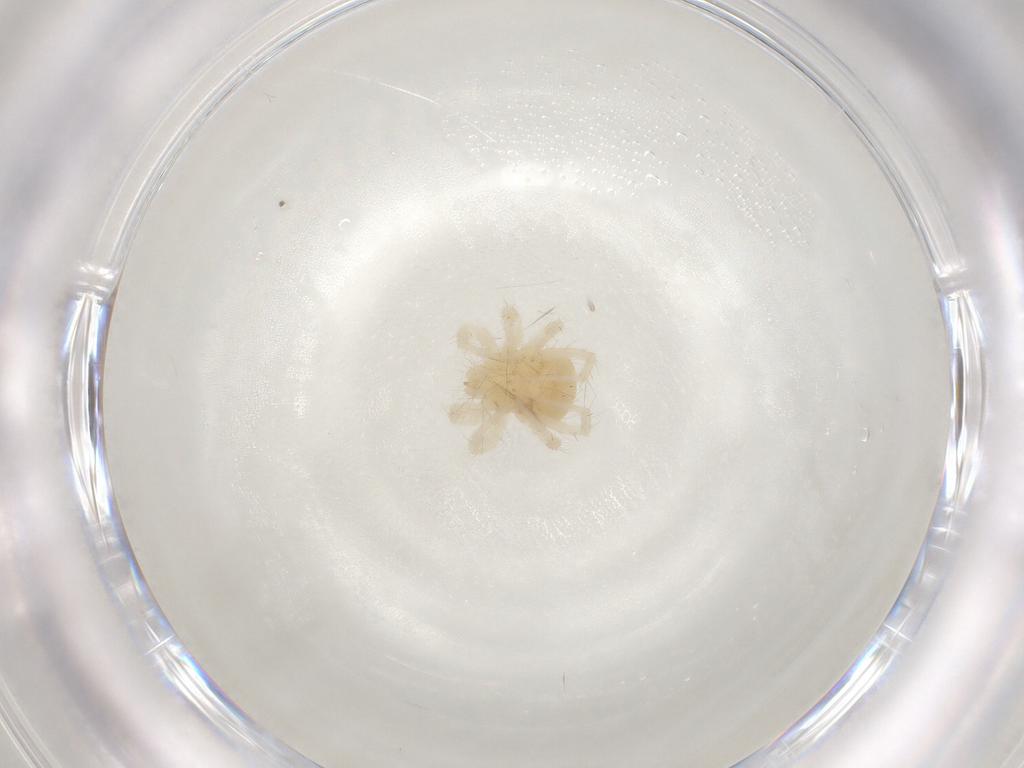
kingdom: Animalia
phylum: Arthropoda
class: Arachnida
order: Trombidiformes
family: Anystidae
